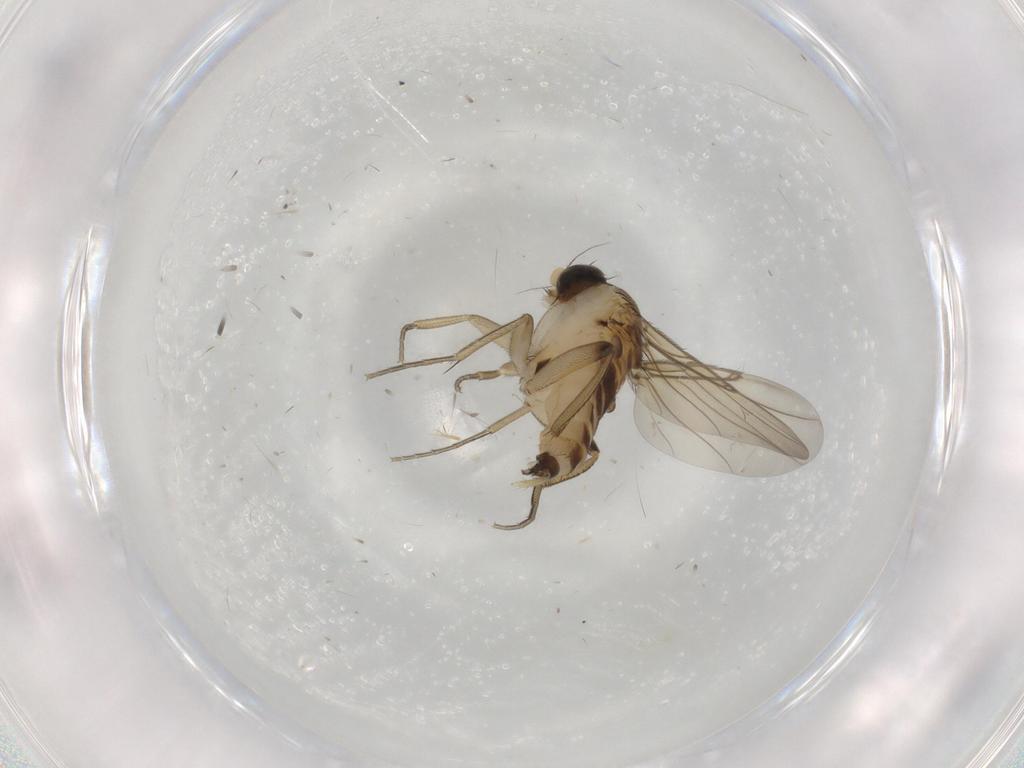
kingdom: Animalia
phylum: Arthropoda
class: Insecta
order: Diptera
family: Phoridae
